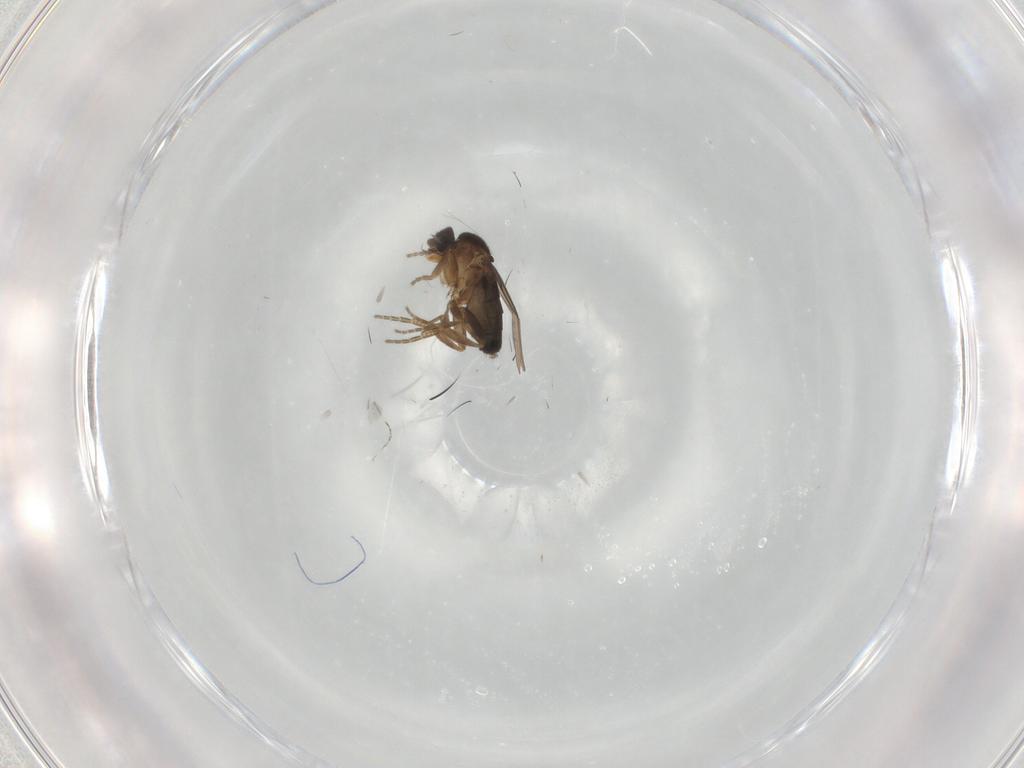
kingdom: Animalia
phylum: Arthropoda
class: Insecta
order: Diptera
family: Phoridae
